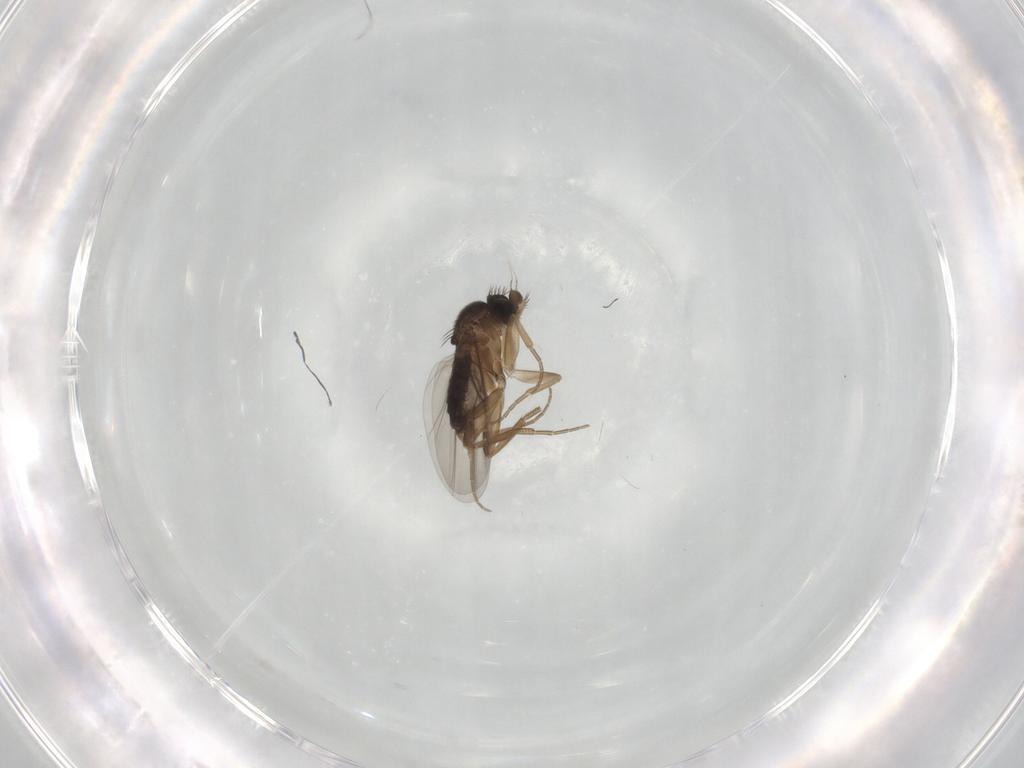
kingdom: Animalia
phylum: Arthropoda
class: Insecta
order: Diptera
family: Phoridae
